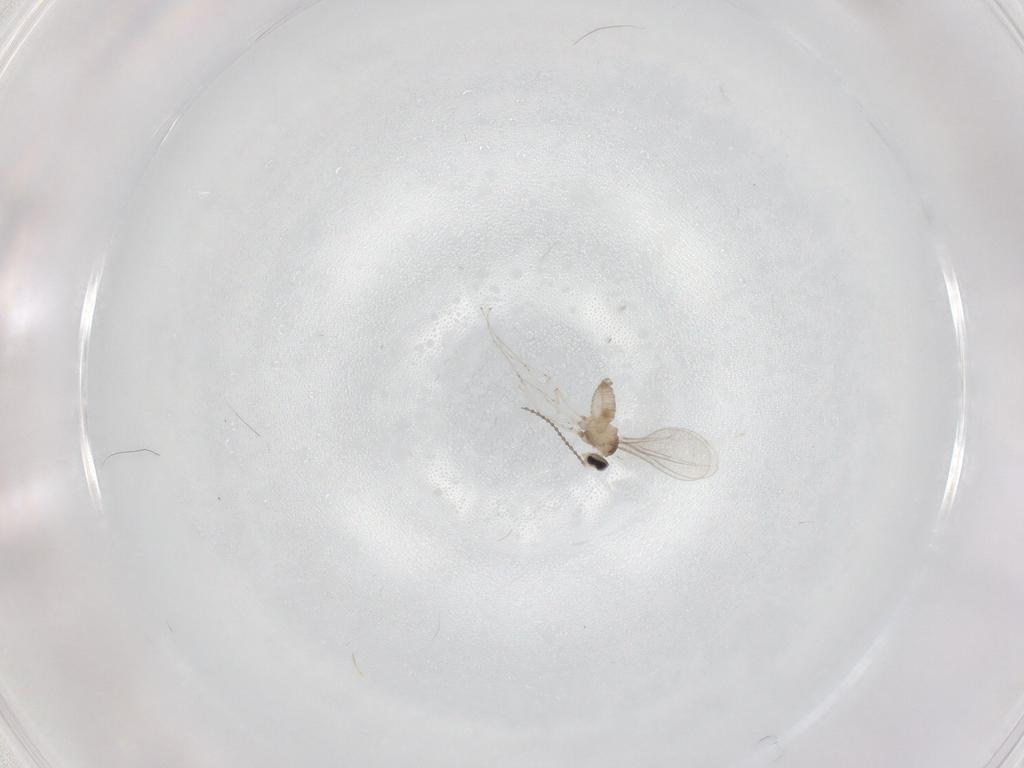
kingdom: Animalia
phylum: Arthropoda
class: Insecta
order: Diptera
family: Cecidomyiidae
